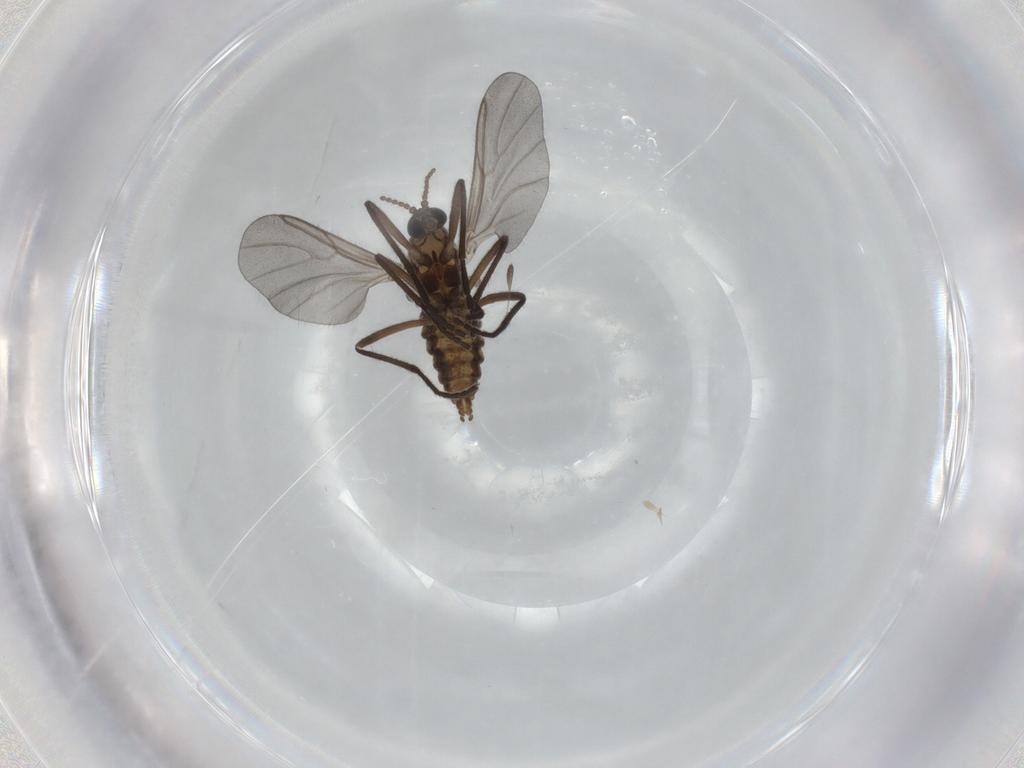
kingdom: Animalia
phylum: Arthropoda
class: Insecta
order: Diptera
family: Cecidomyiidae
